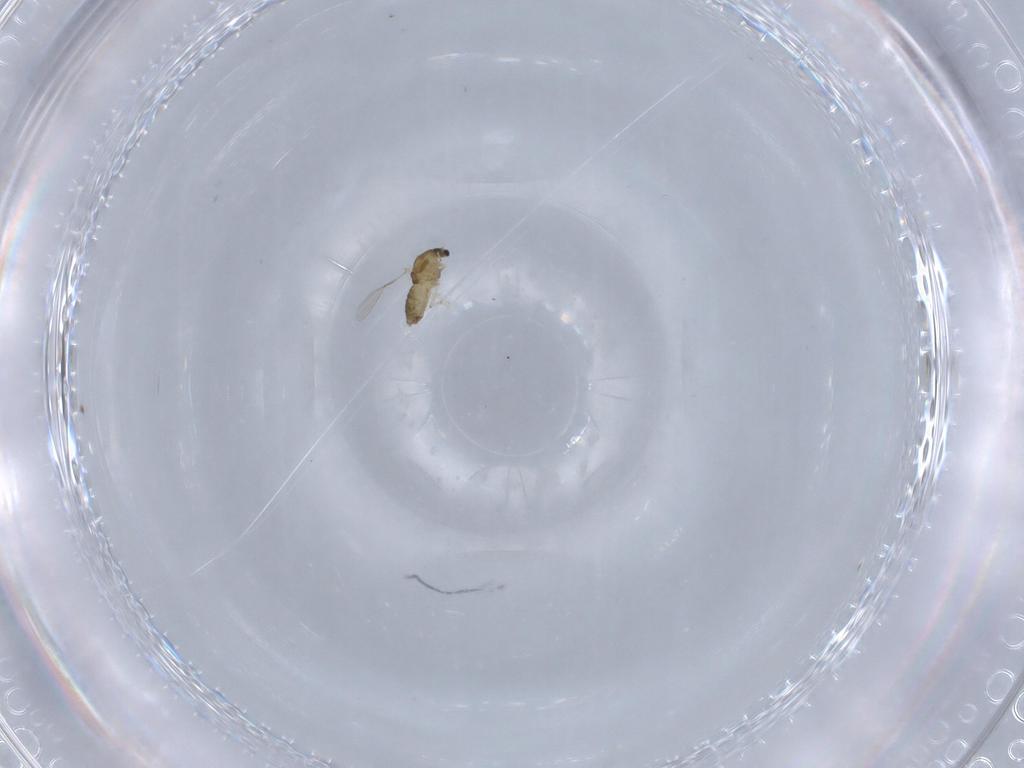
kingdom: Animalia
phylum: Arthropoda
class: Insecta
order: Diptera
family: Chironomidae
